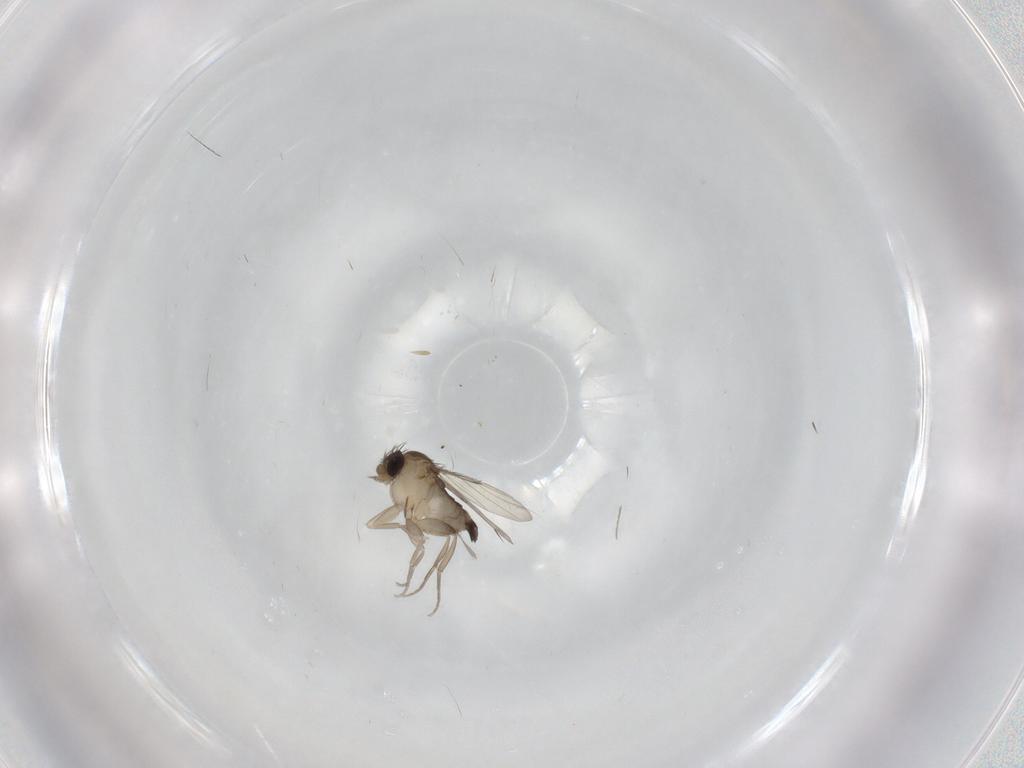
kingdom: Animalia
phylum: Arthropoda
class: Insecta
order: Diptera
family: Phoridae
